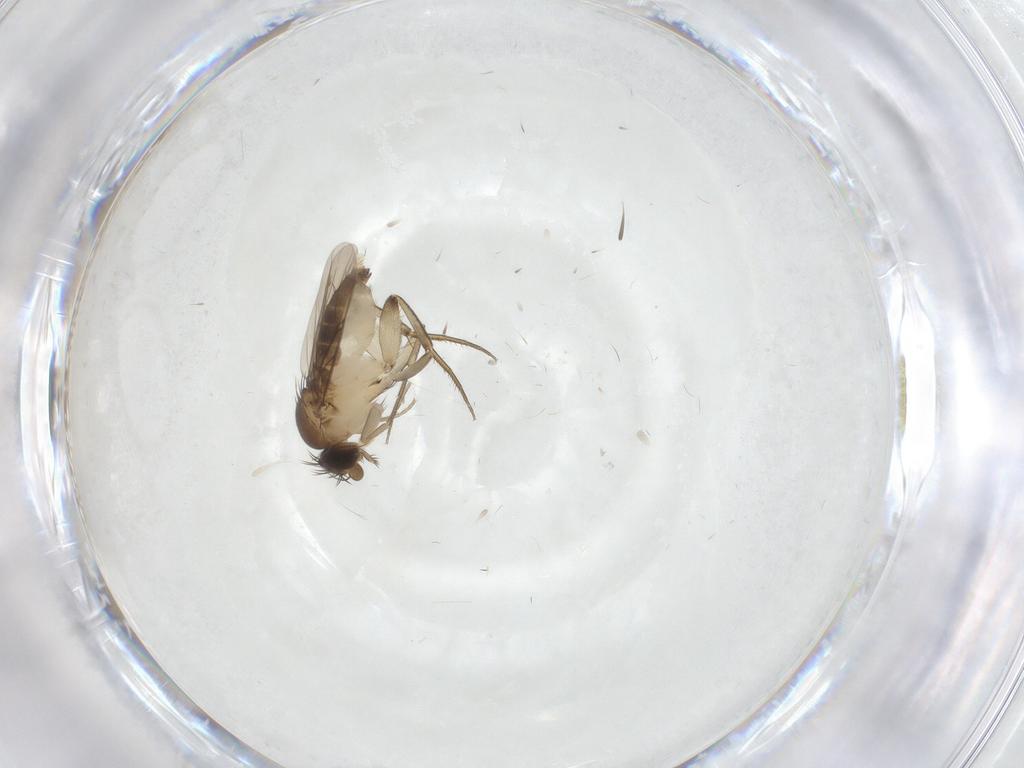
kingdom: Animalia
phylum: Arthropoda
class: Insecta
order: Diptera
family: Phoridae
